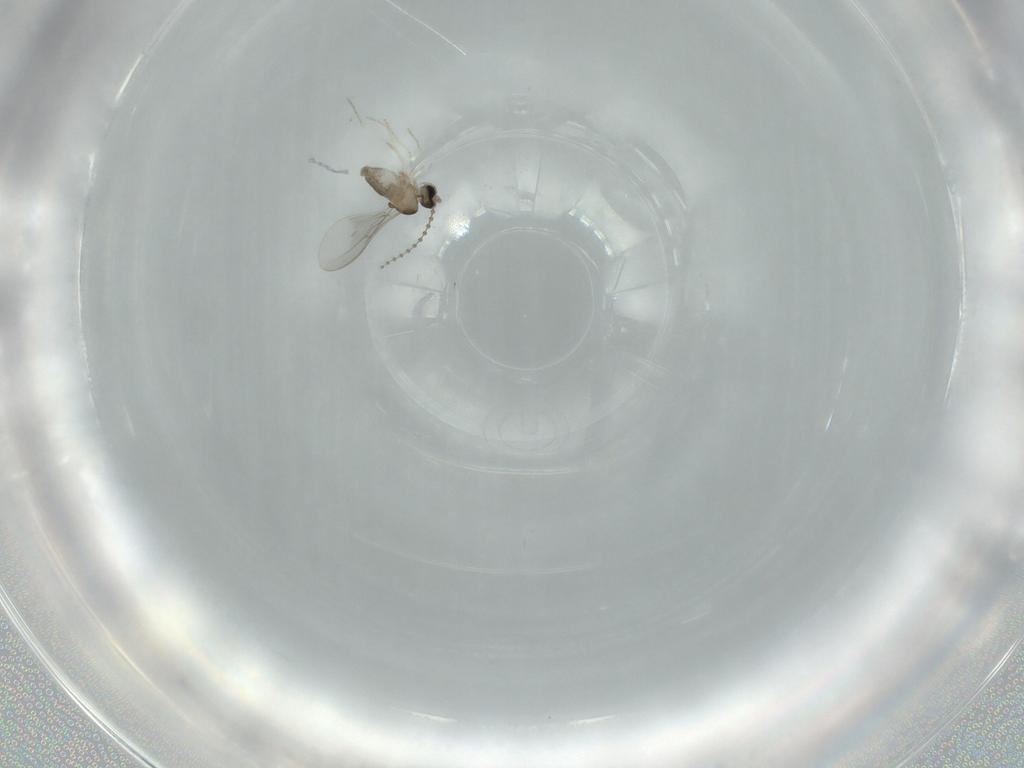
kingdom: Animalia
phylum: Arthropoda
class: Insecta
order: Diptera
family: Cecidomyiidae
